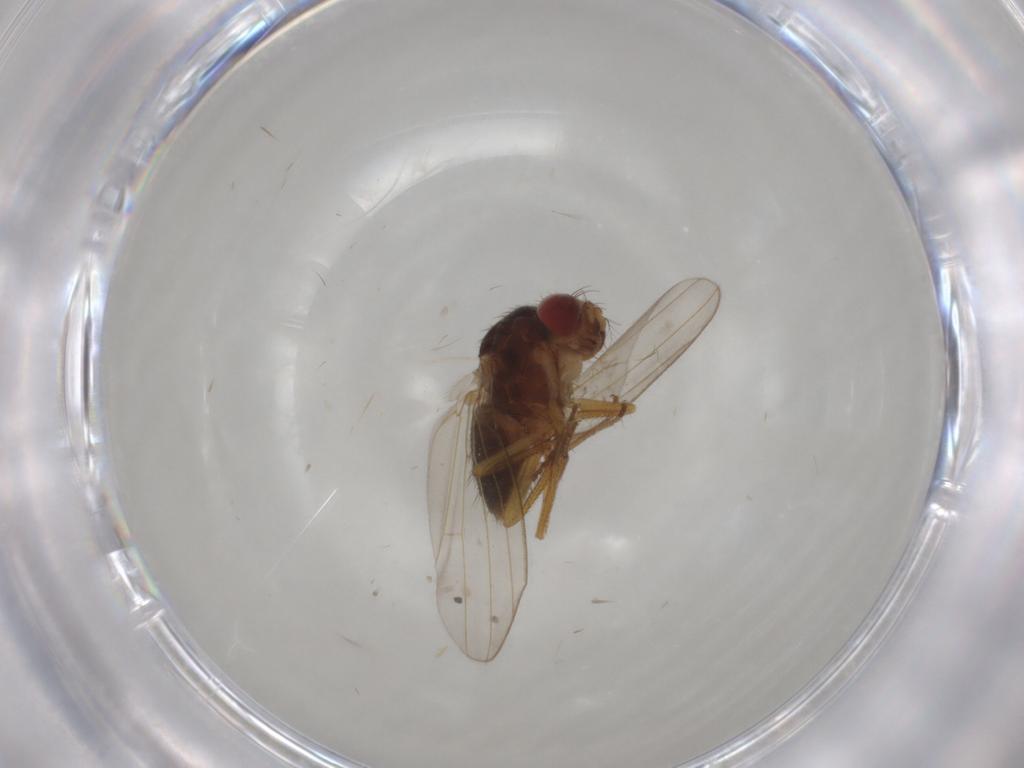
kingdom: Animalia
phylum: Arthropoda
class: Insecta
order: Diptera
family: Drosophilidae
